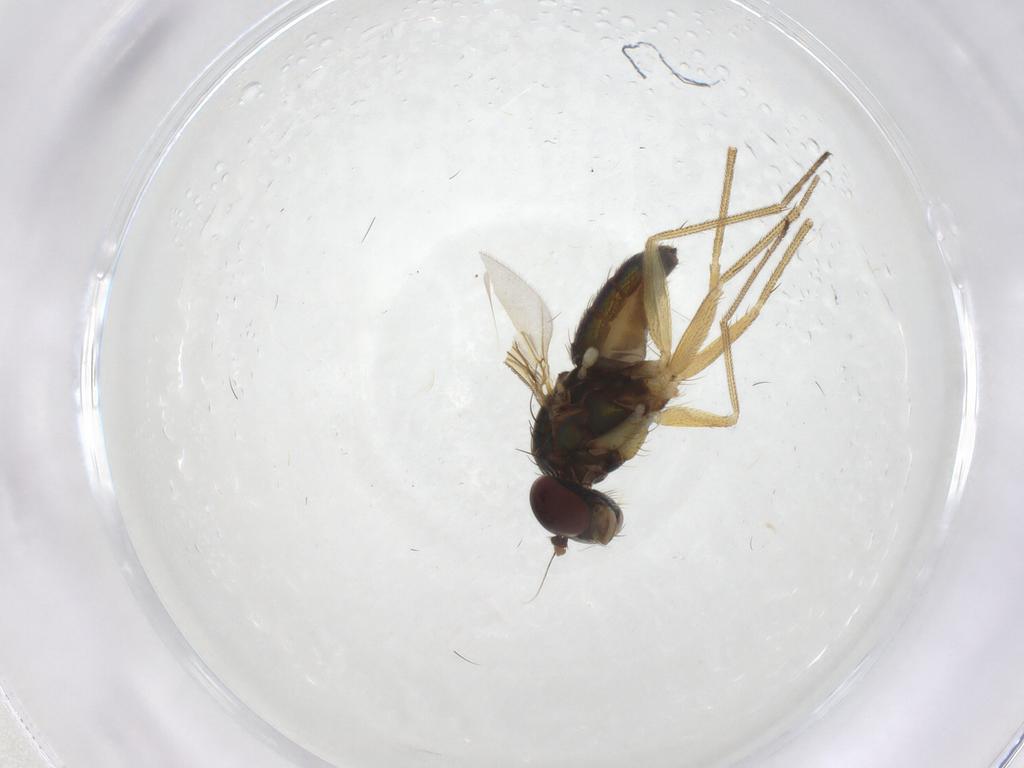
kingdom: Animalia
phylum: Arthropoda
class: Insecta
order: Diptera
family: Dolichopodidae
